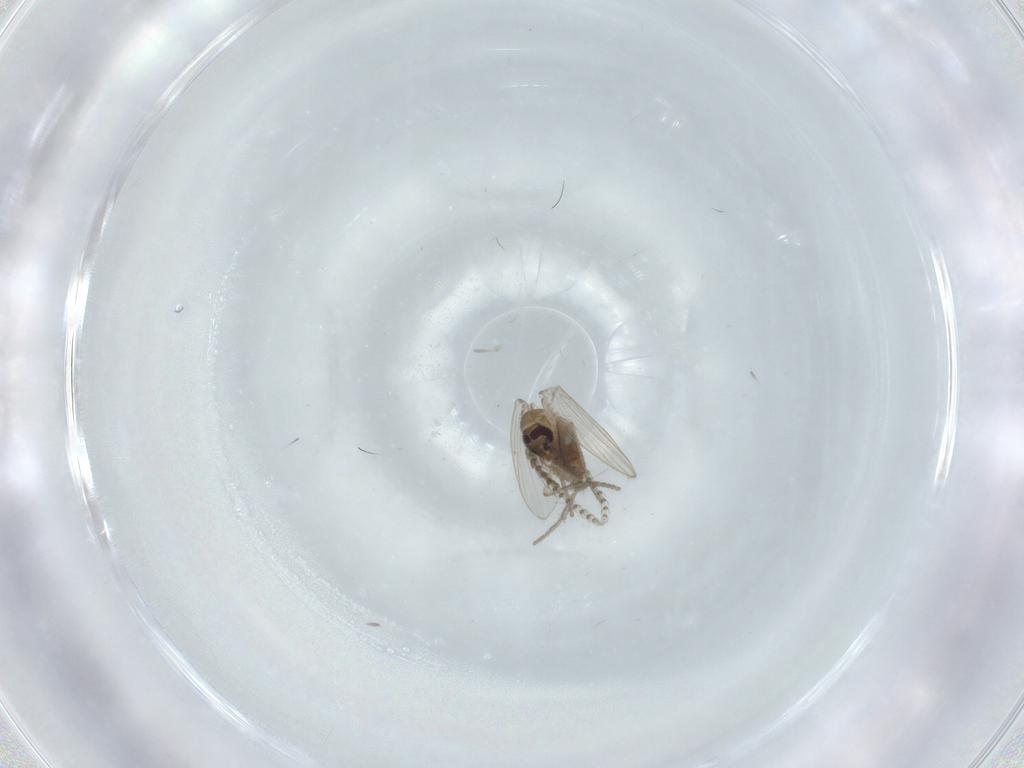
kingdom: Animalia
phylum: Arthropoda
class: Insecta
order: Diptera
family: Psychodidae
